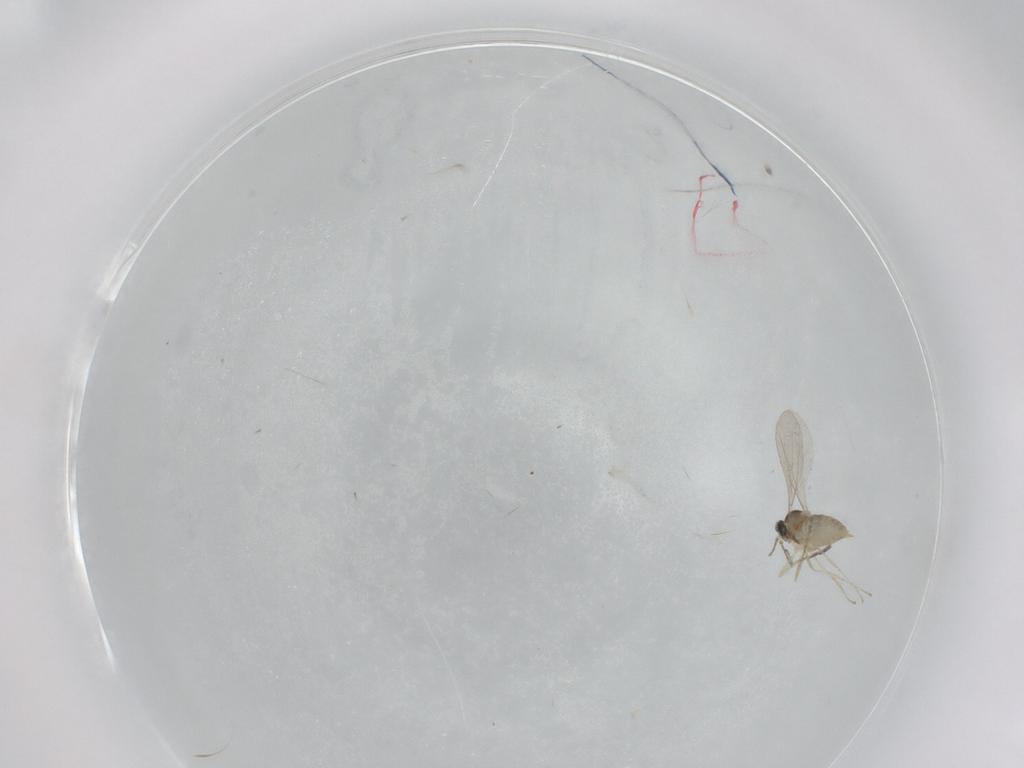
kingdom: Animalia
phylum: Arthropoda
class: Insecta
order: Diptera
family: Cecidomyiidae
